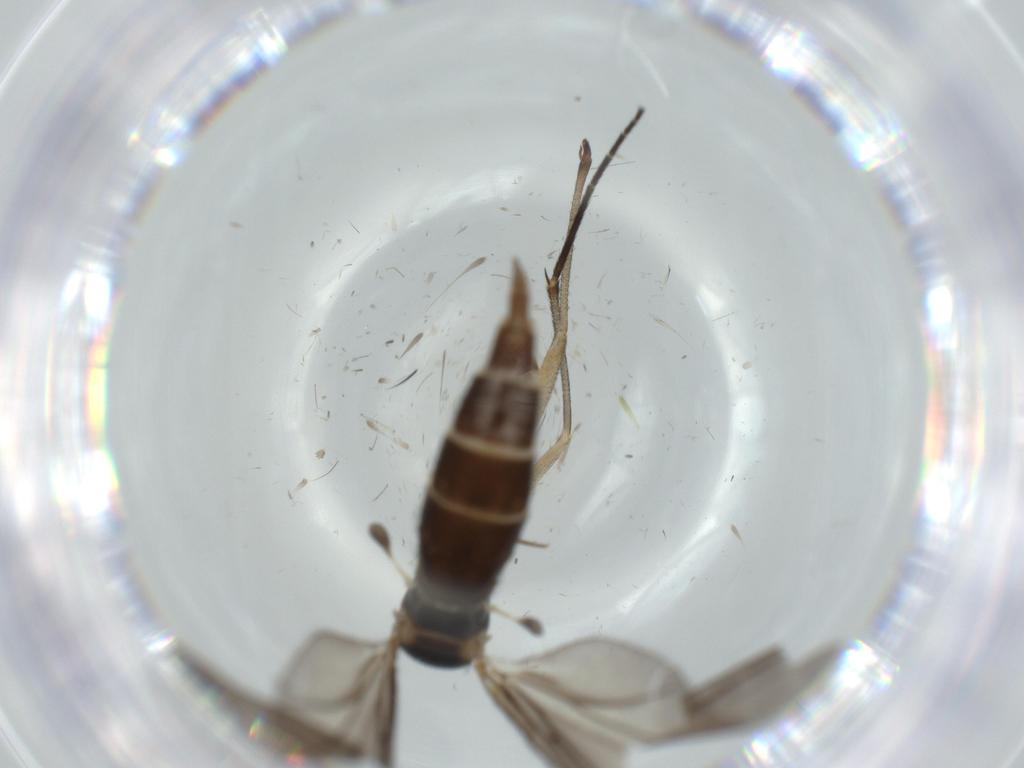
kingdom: Animalia
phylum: Arthropoda
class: Insecta
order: Diptera
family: Sciaridae
